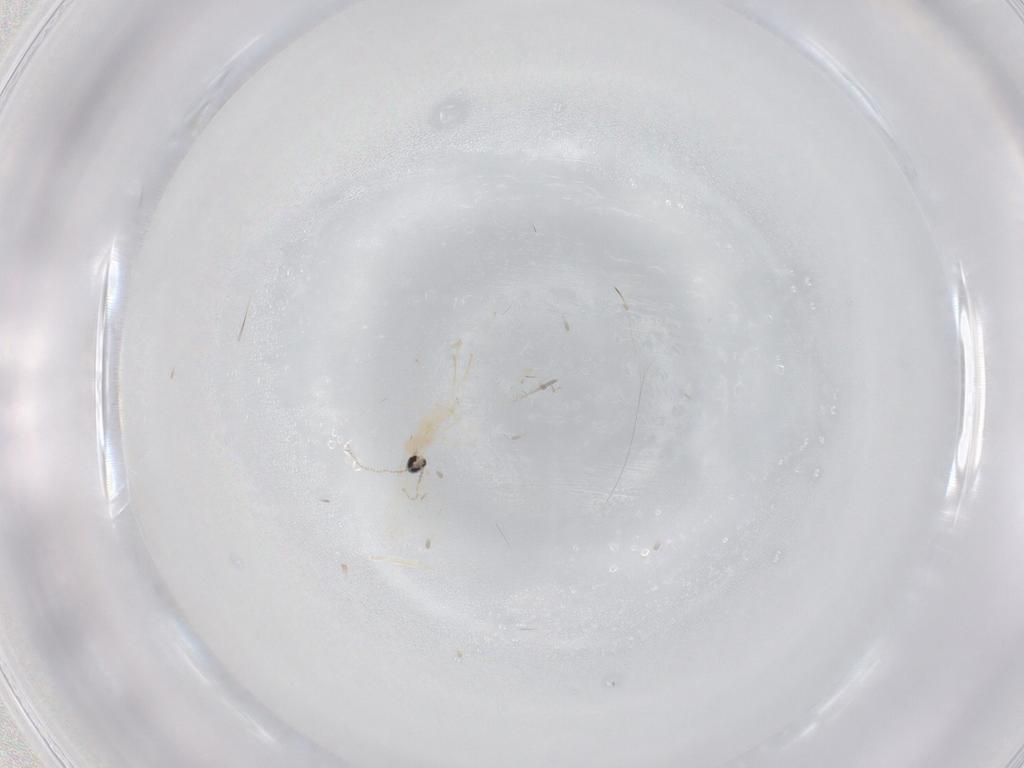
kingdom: Animalia
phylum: Arthropoda
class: Insecta
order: Diptera
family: Cecidomyiidae
